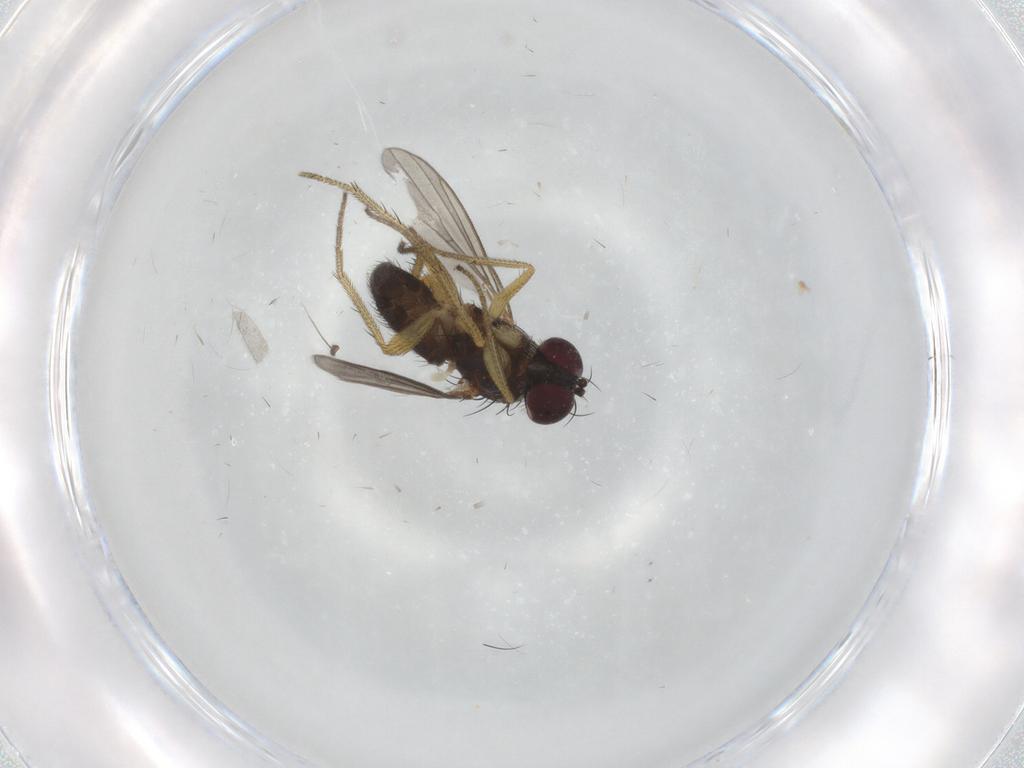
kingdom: Animalia
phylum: Arthropoda
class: Insecta
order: Diptera
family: Dolichopodidae
